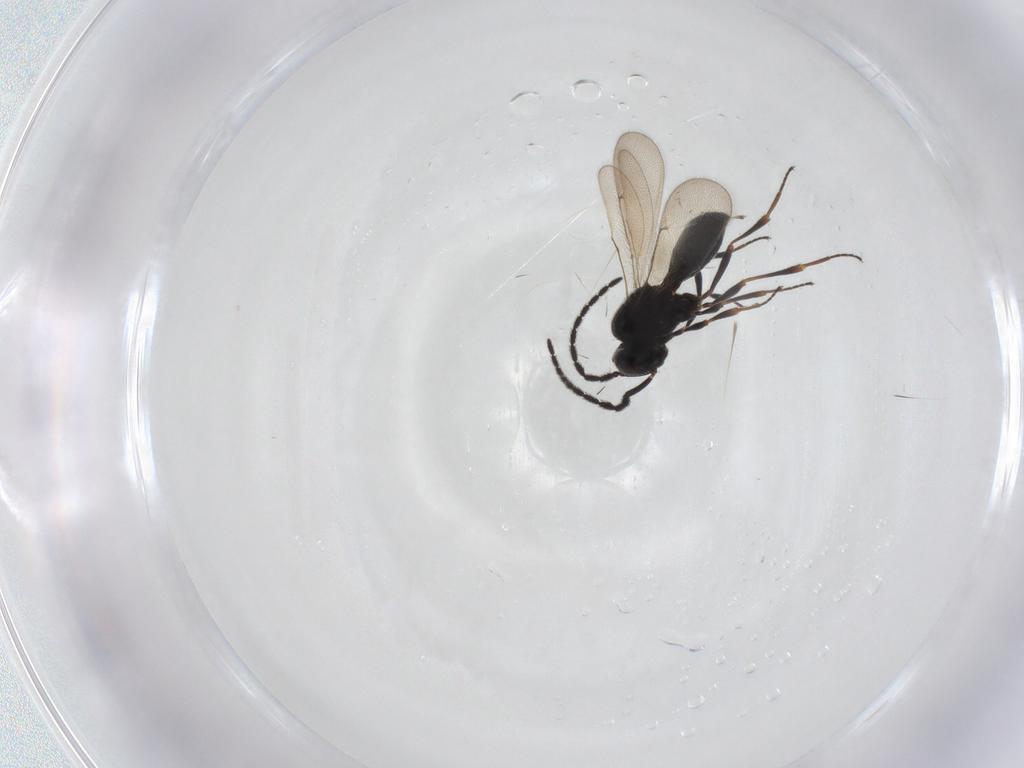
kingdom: Animalia
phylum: Arthropoda
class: Insecta
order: Hymenoptera
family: Scelionidae
